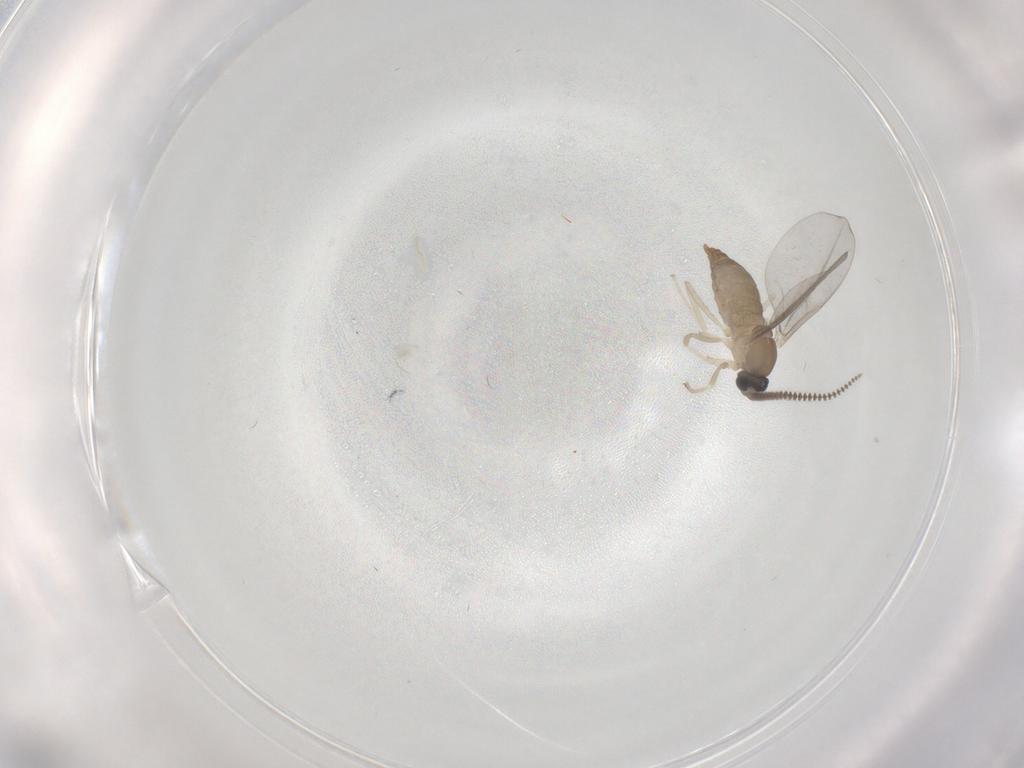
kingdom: Animalia
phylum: Arthropoda
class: Insecta
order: Diptera
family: Cecidomyiidae
